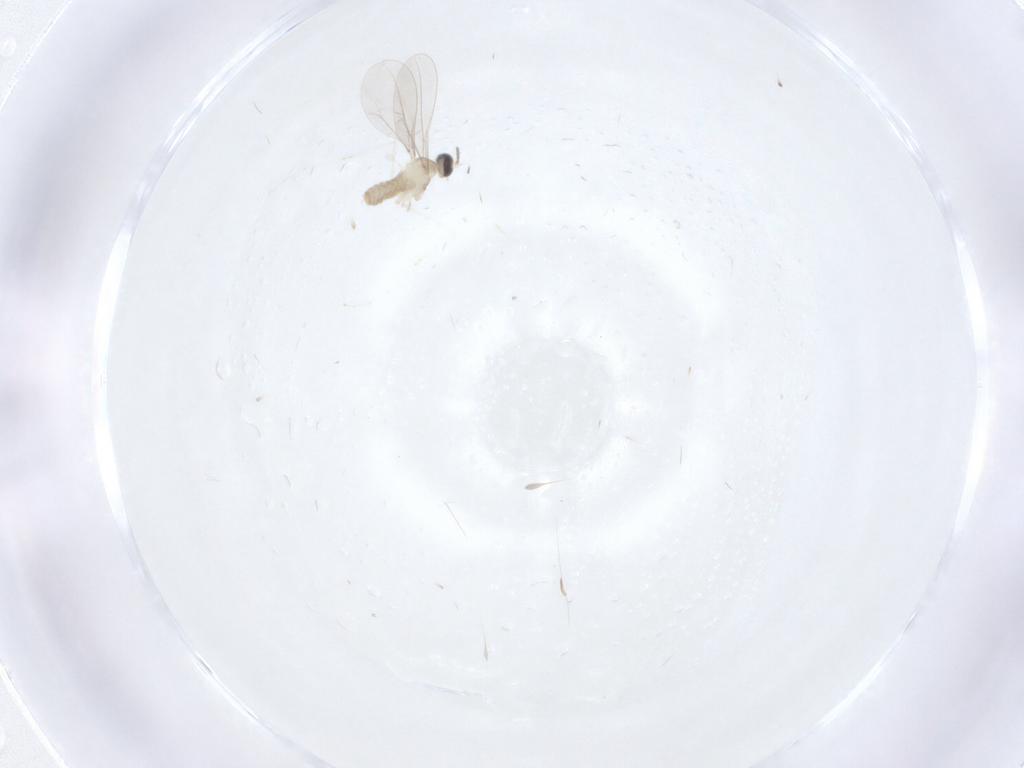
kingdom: Animalia
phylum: Arthropoda
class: Insecta
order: Diptera
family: Cecidomyiidae
